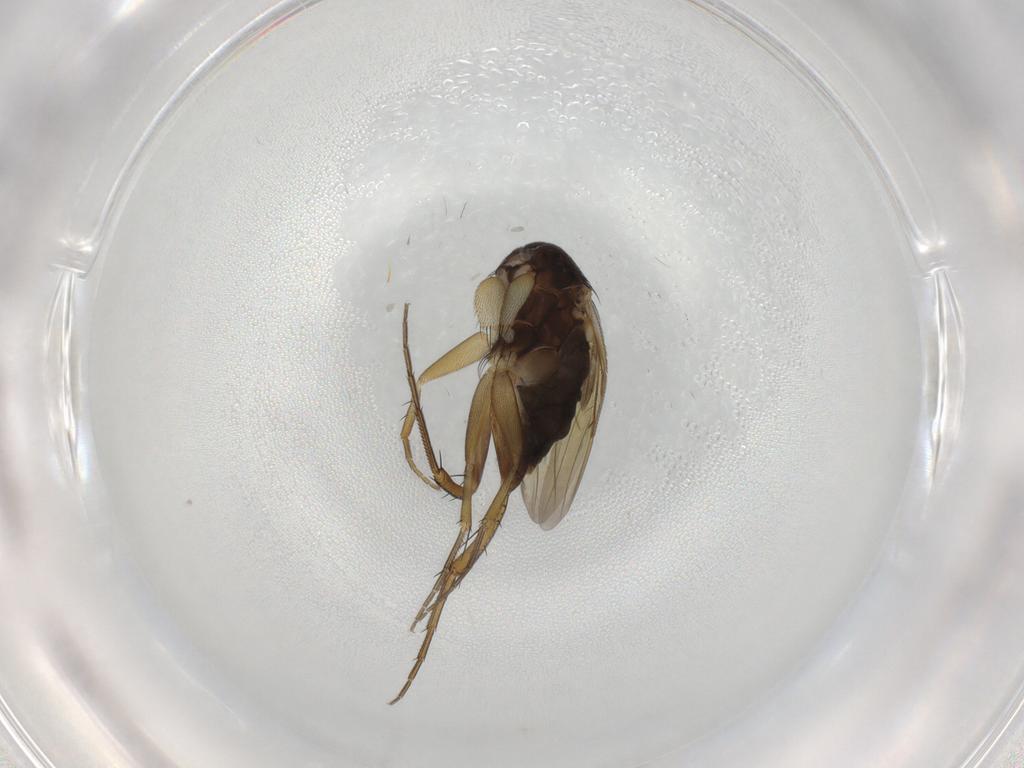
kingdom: Animalia
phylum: Arthropoda
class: Insecta
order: Diptera
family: Phoridae
